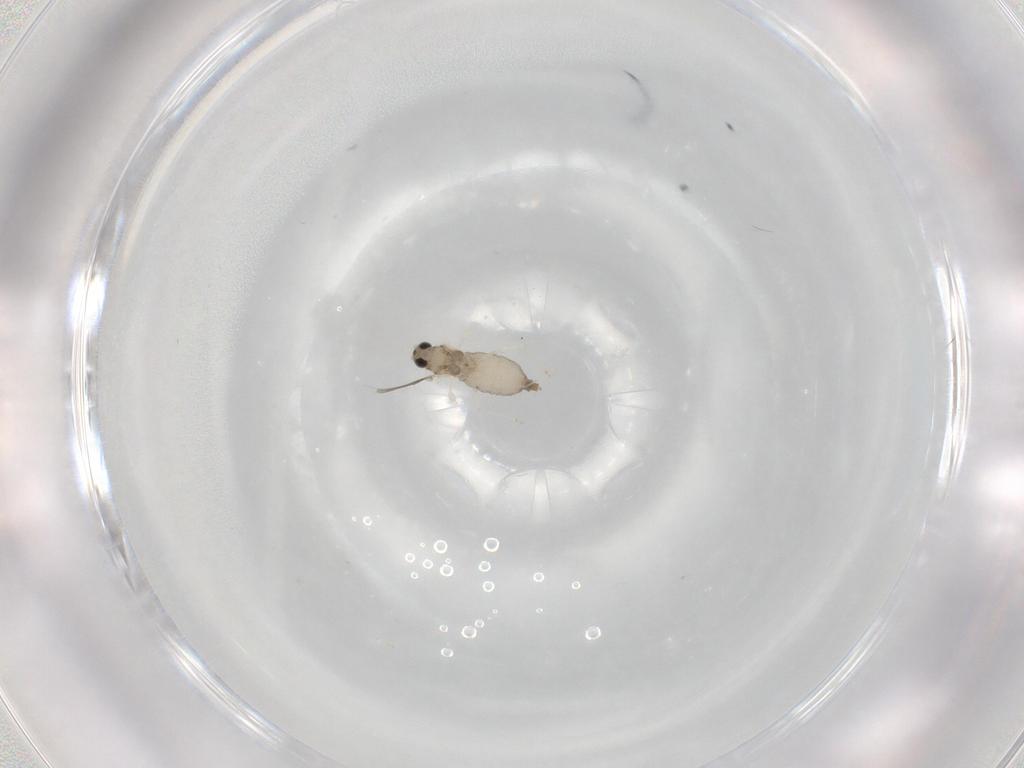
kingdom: Animalia
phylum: Arthropoda
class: Insecta
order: Diptera
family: Cecidomyiidae
